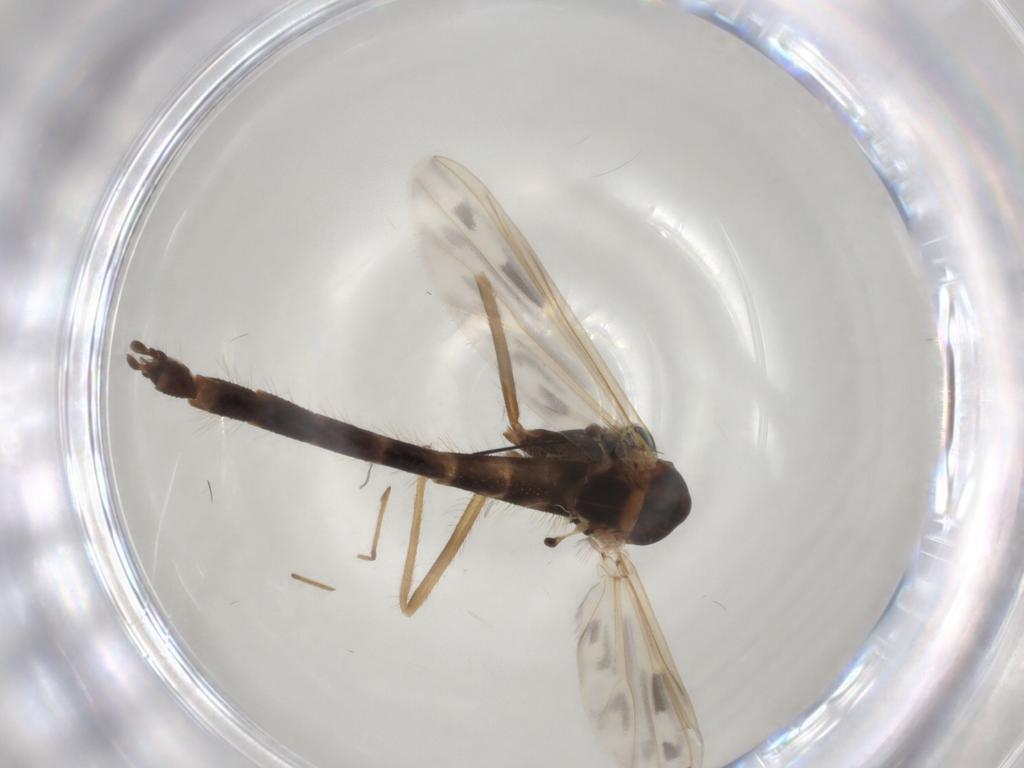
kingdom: Animalia
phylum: Arthropoda
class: Insecta
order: Diptera
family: Chironomidae
